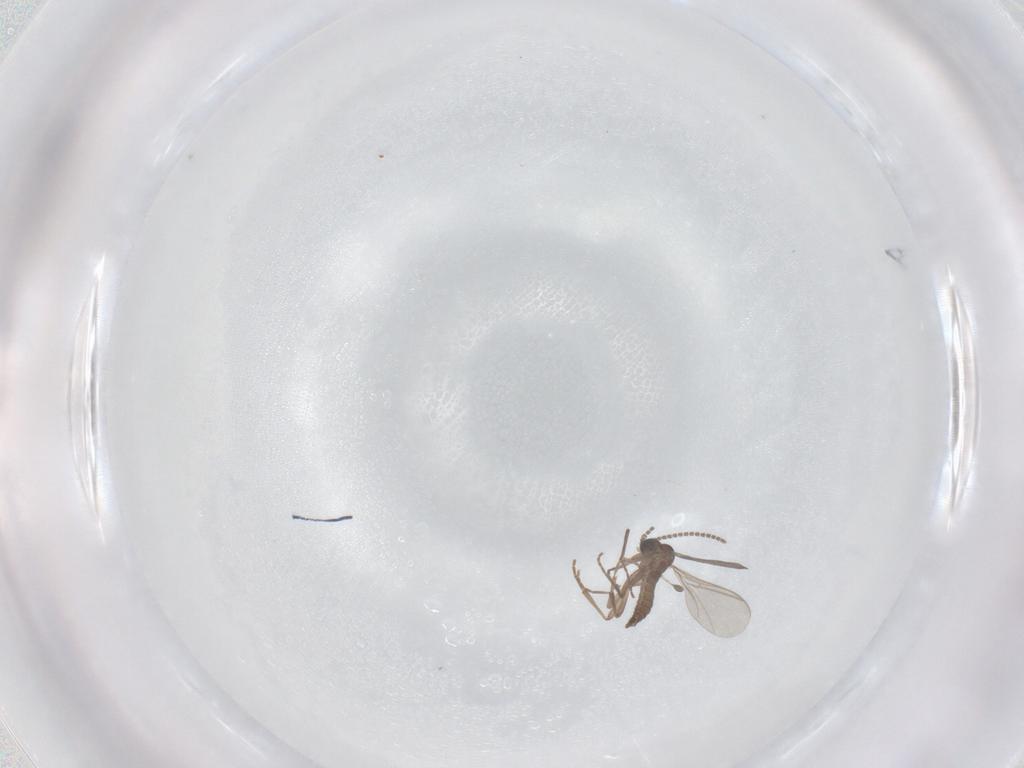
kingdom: Animalia
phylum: Arthropoda
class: Insecta
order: Diptera
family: Sciaridae
